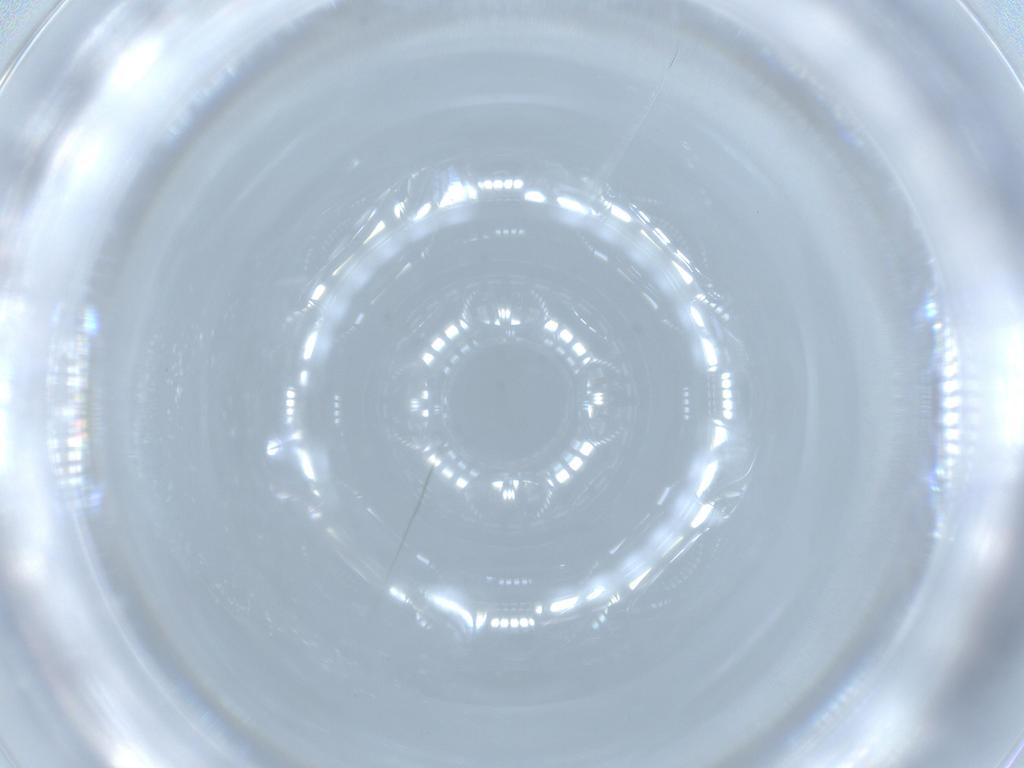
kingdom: Animalia
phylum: Arthropoda
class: Insecta
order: Psocodea
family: Lepidopsocidae
